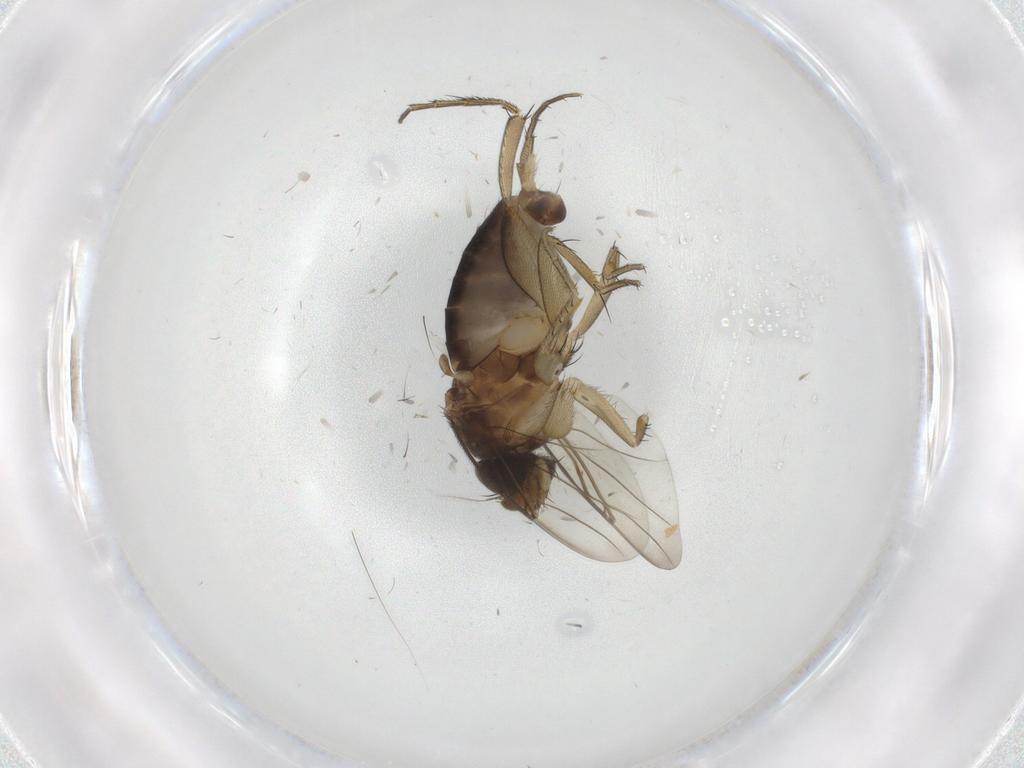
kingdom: Animalia
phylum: Arthropoda
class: Insecta
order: Diptera
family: Phoridae
